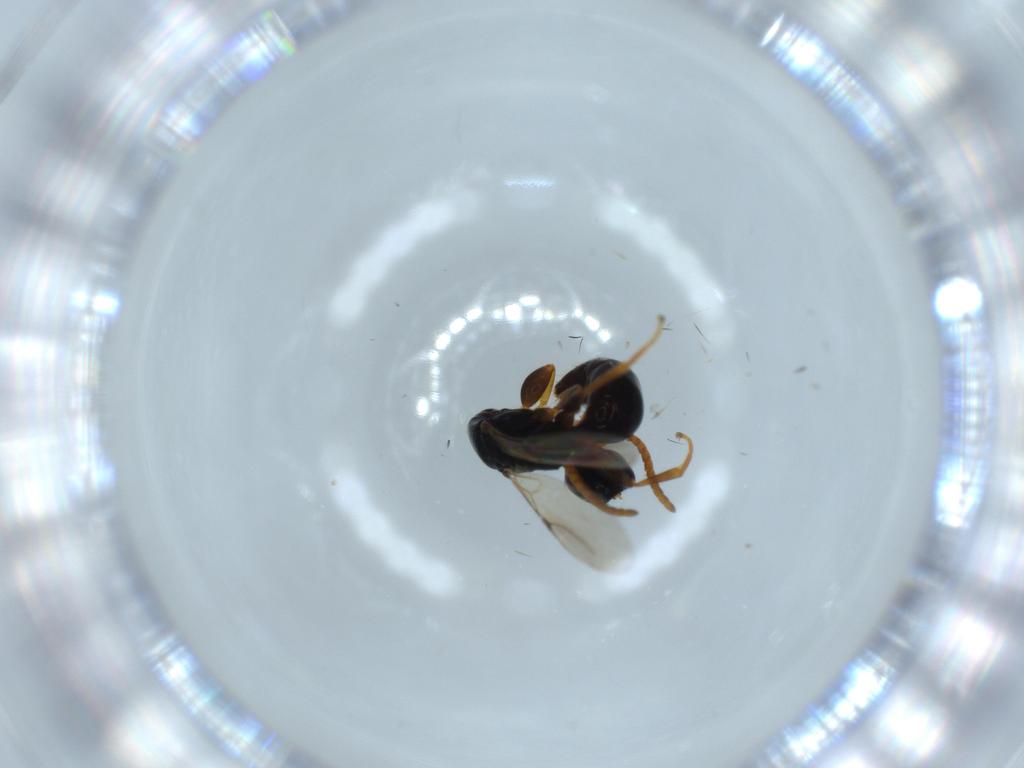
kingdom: Animalia
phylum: Arthropoda
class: Insecta
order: Hymenoptera
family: Bethylidae
